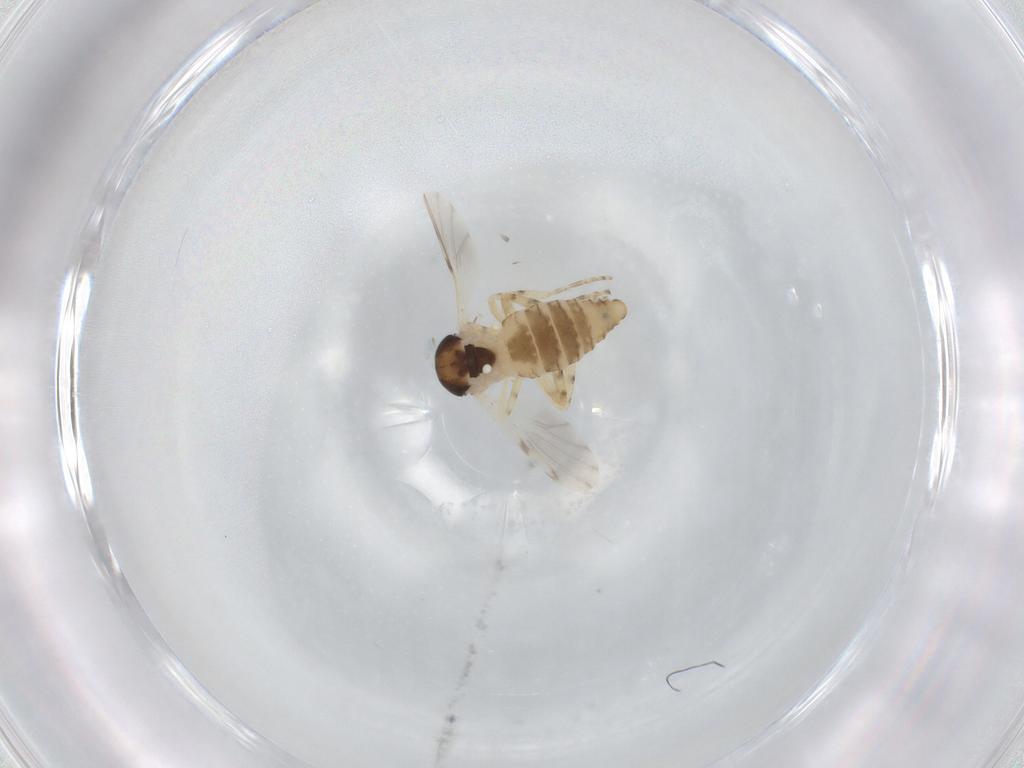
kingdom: Animalia
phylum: Arthropoda
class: Insecta
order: Diptera
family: Ceratopogonidae
